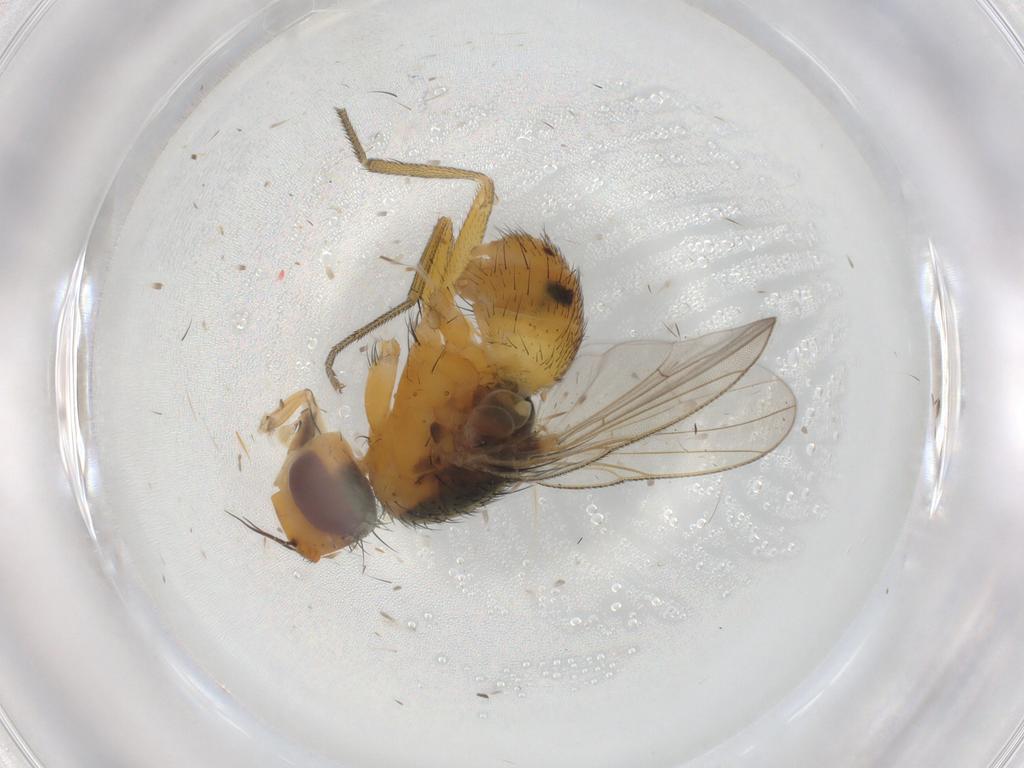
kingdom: Animalia
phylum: Arthropoda
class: Insecta
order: Diptera
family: Muscidae
